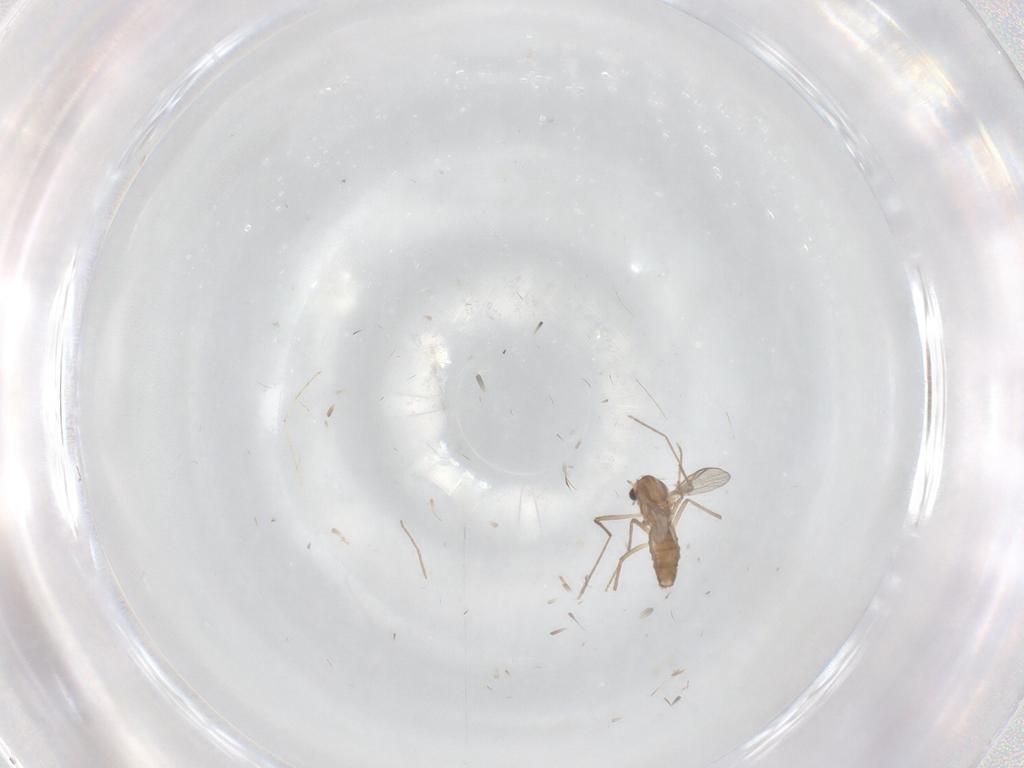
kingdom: Animalia
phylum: Arthropoda
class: Insecta
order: Diptera
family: Chironomidae
